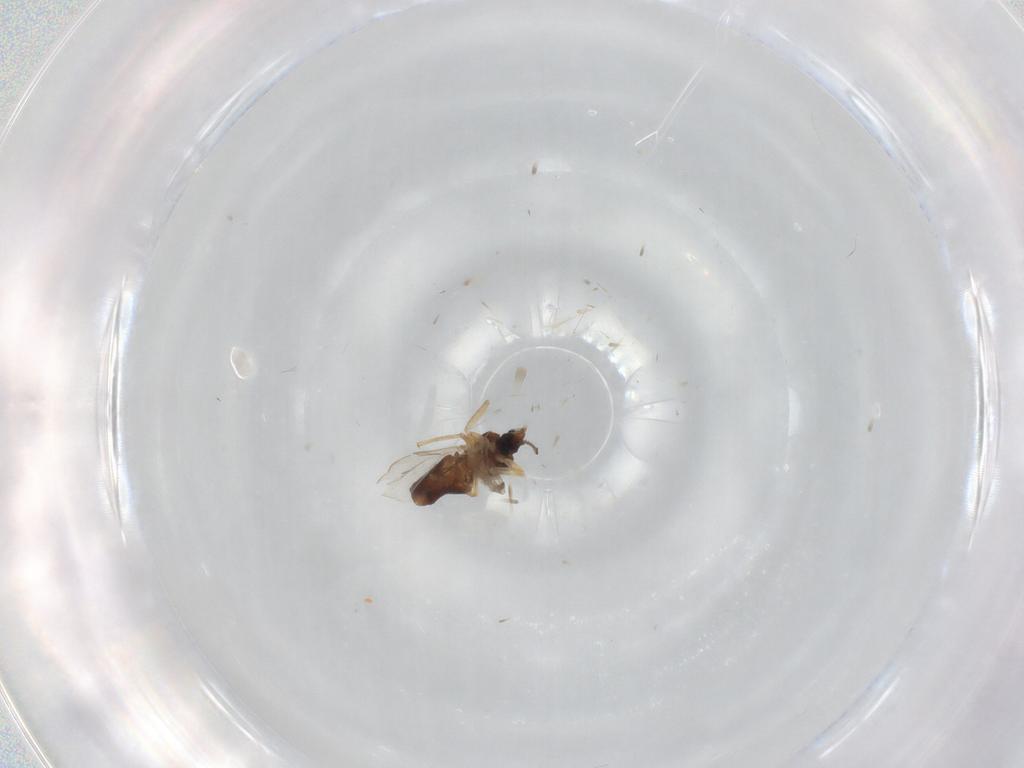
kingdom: Animalia
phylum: Arthropoda
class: Insecta
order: Diptera
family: Ceratopogonidae
